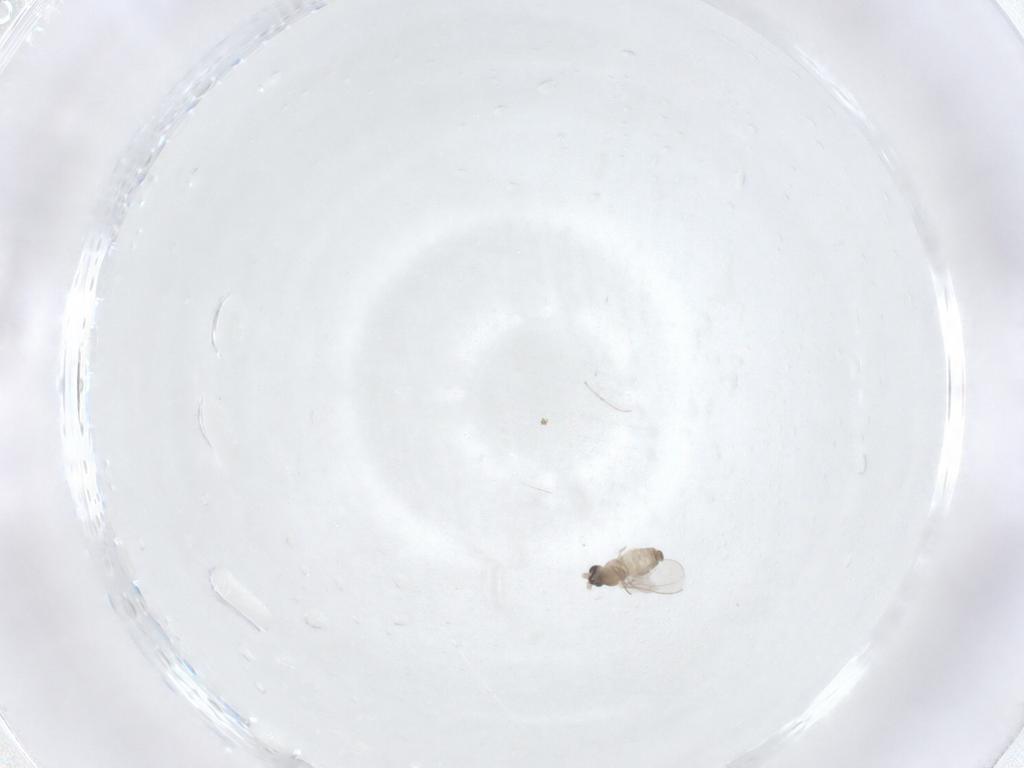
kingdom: Animalia
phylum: Arthropoda
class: Insecta
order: Diptera
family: Cecidomyiidae
